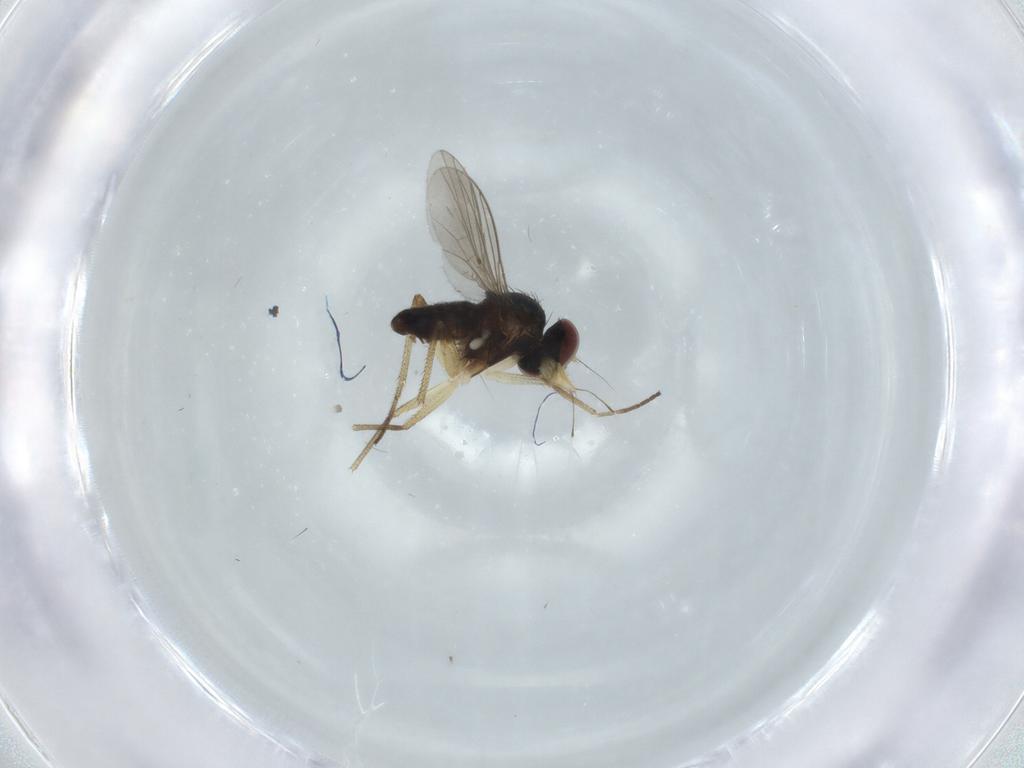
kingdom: Animalia
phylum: Arthropoda
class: Insecta
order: Diptera
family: Dolichopodidae
